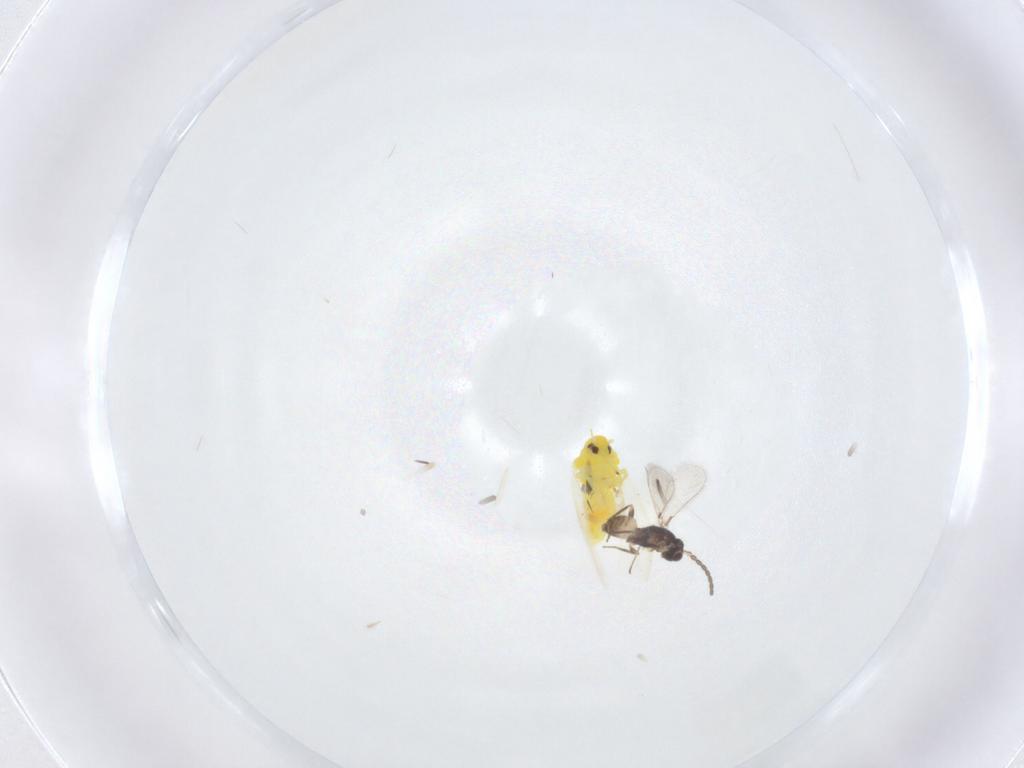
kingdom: Animalia
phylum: Arthropoda
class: Insecta
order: Hemiptera
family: Aleyrodidae
